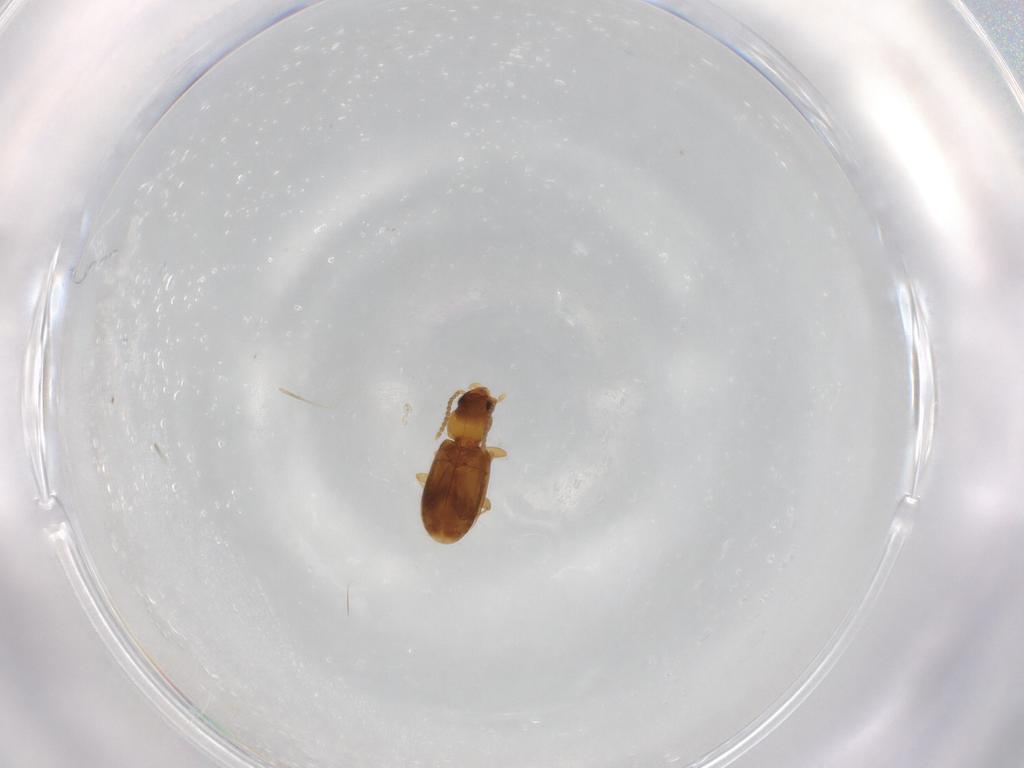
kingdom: Animalia
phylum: Arthropoda
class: Insecta
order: Coleoptera
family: Carabidae
